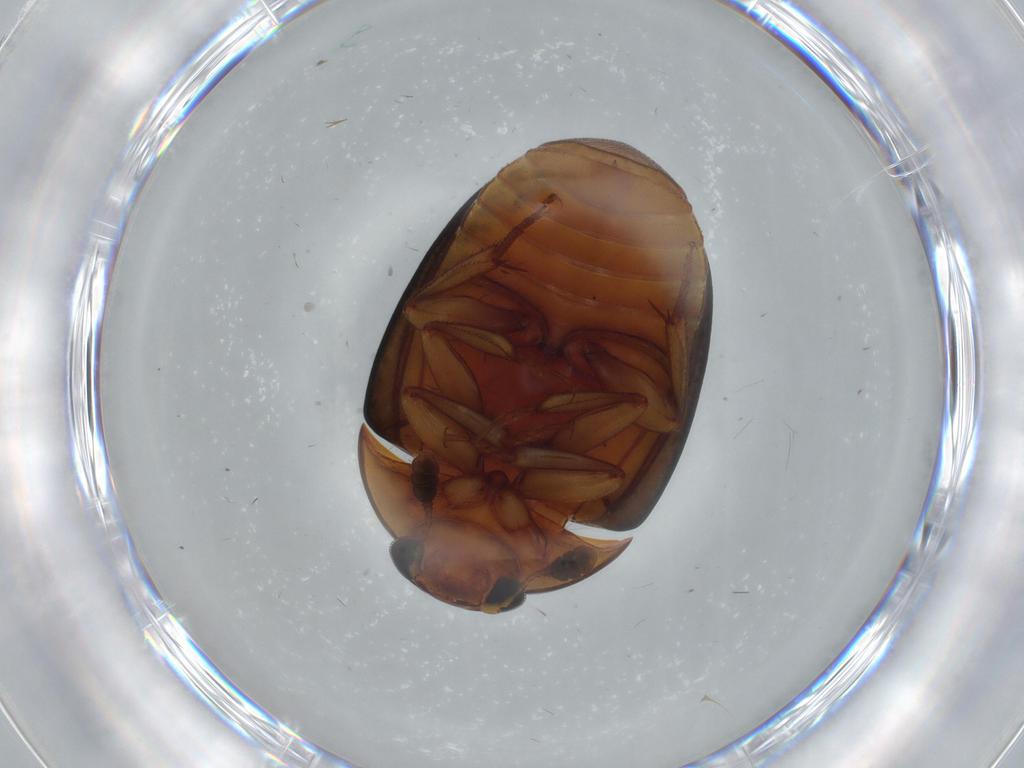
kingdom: Animalia
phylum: Arthropoda
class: Insecta
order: Coleoptera
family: Nitidulidae
